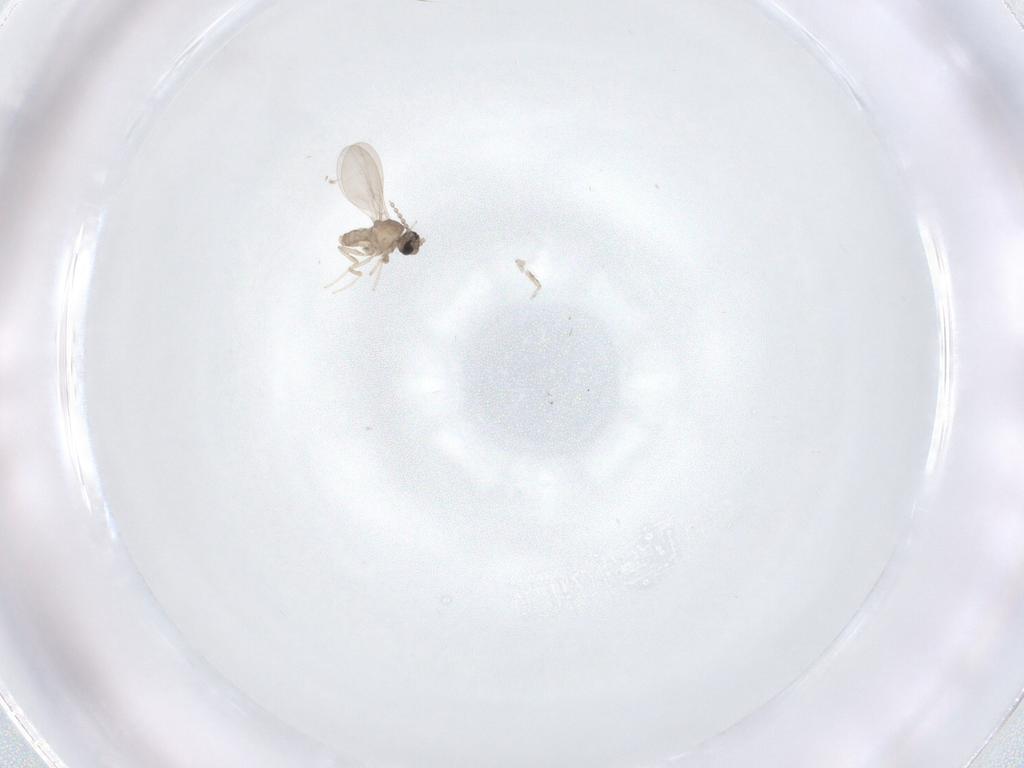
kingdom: Animalia
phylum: Arthropoda
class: Insecta
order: Diptera
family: Cecidomyiidae
